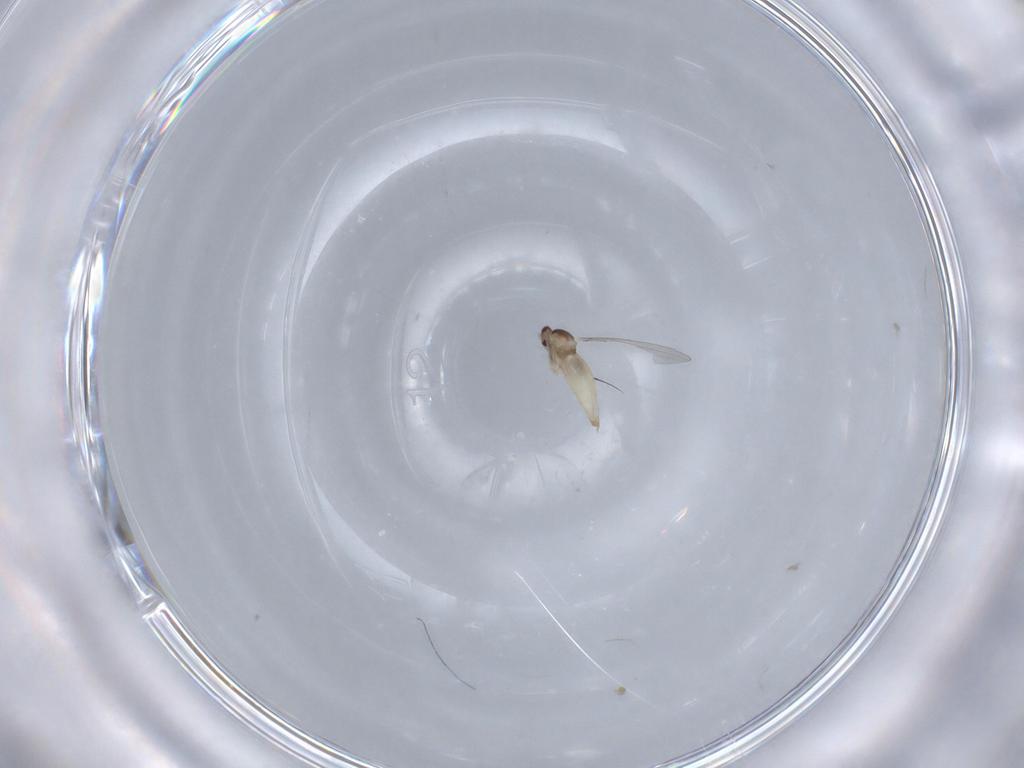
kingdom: Animalia
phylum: Arthropoda
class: Insecta
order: Diptera
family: Cecidomyiidae
